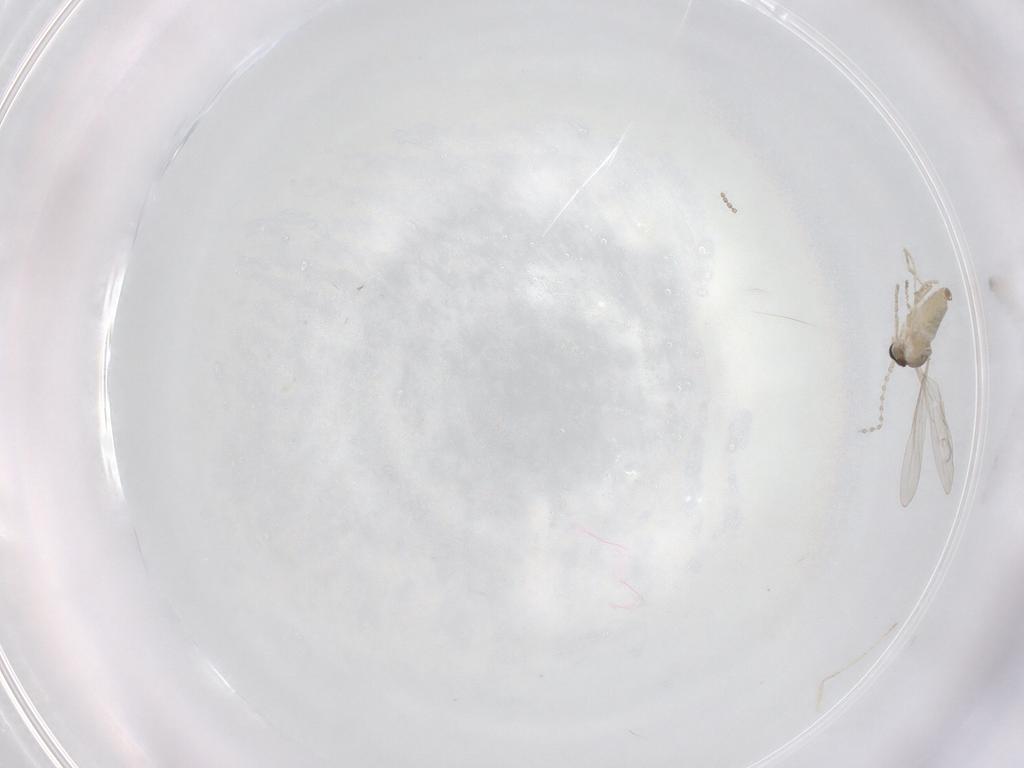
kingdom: Animalia
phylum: Arthropoda
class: Insecta
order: Diptera
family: Cecidomyiidae
